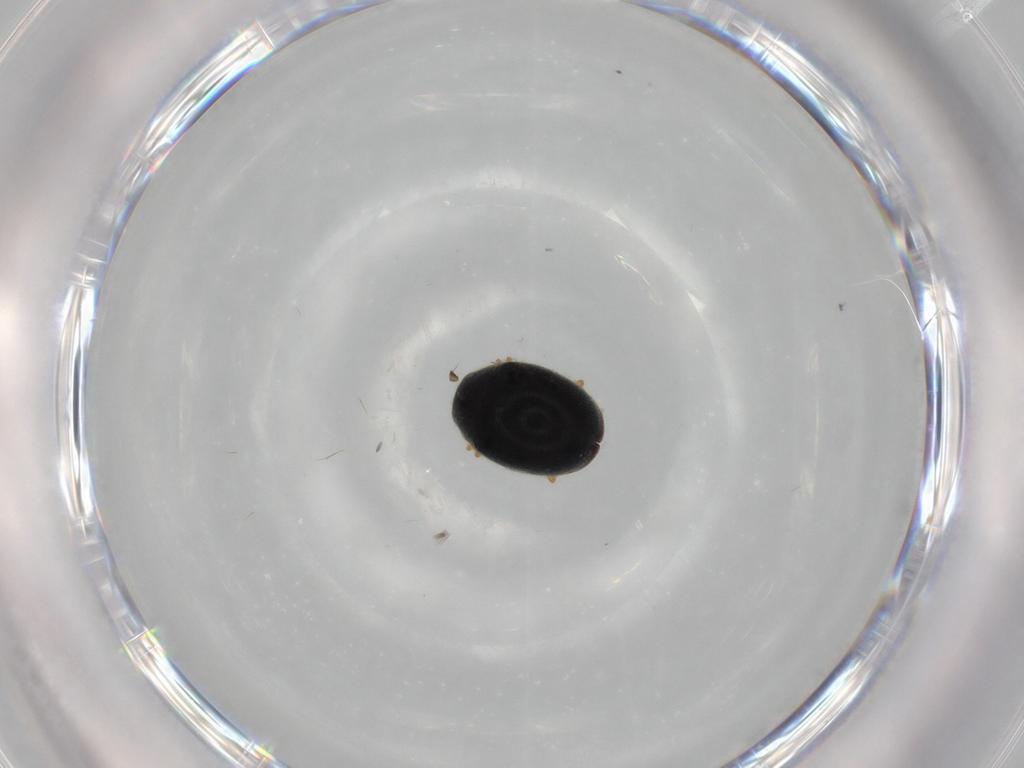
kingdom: Animalia
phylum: Arthropoda
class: Insecta
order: Coleoptera
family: Coccinellidae
